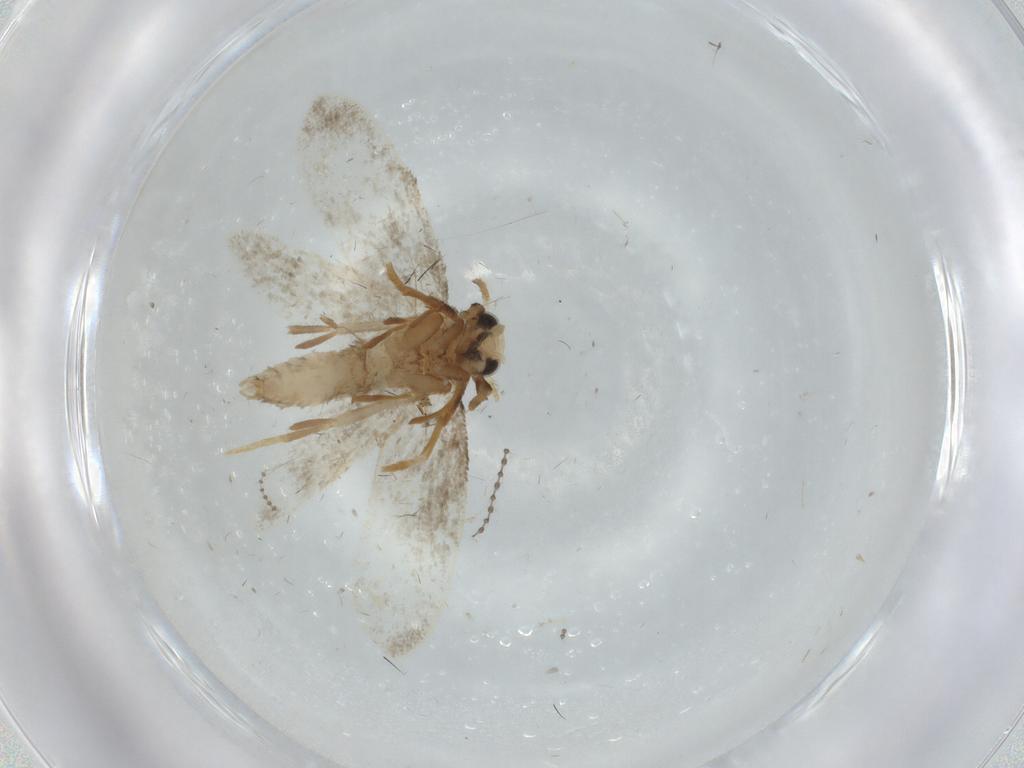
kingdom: Animalia
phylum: Arthropoda
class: Insecta
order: Lepidoptera
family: Psychidae
